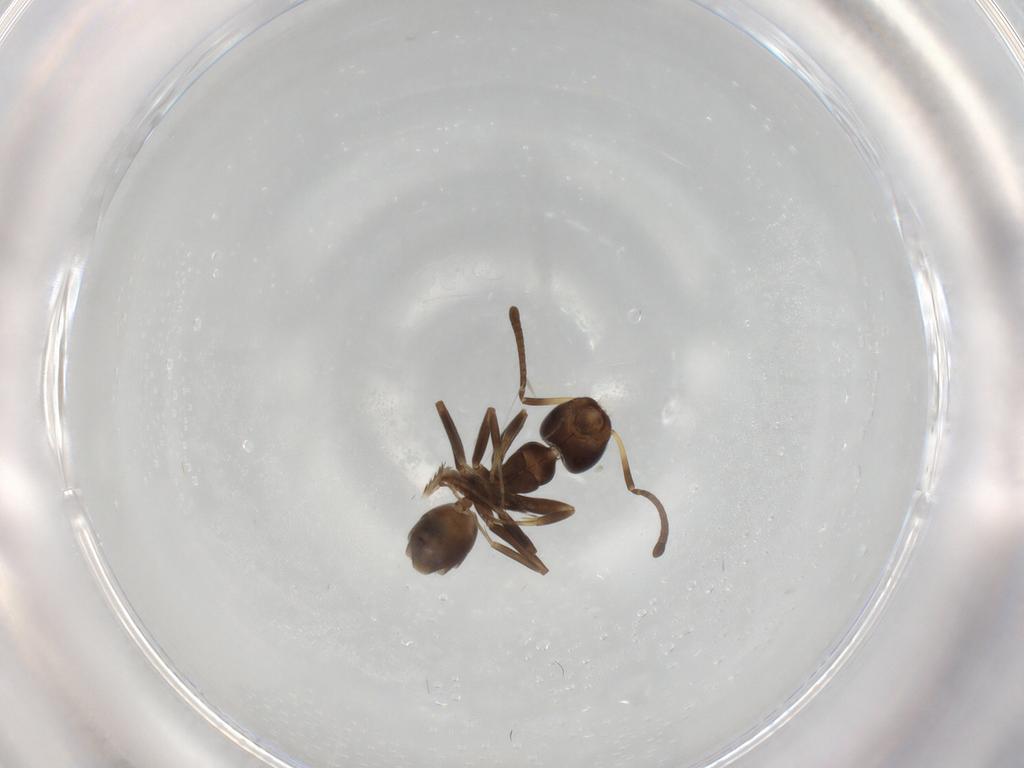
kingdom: Animalia
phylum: Arthropoda
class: Insecta
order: Hymenoptera
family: Formicidae
